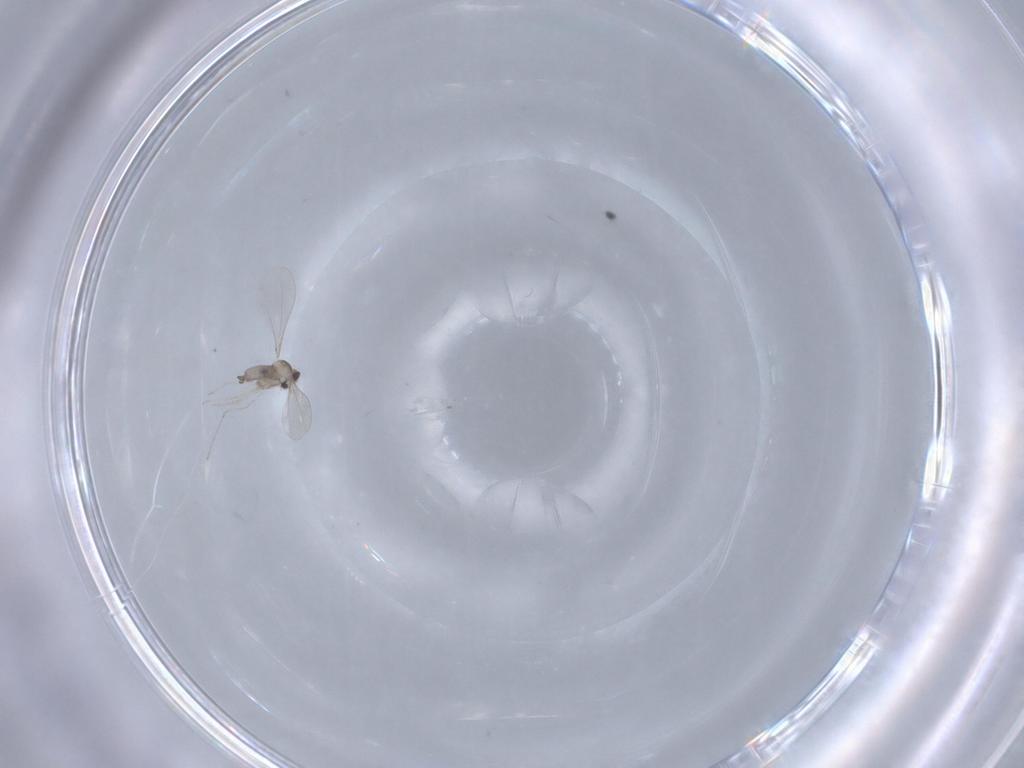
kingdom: Animalia
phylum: Arthropoda
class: Insecta
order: Diptera
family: Cecidomyiidae
